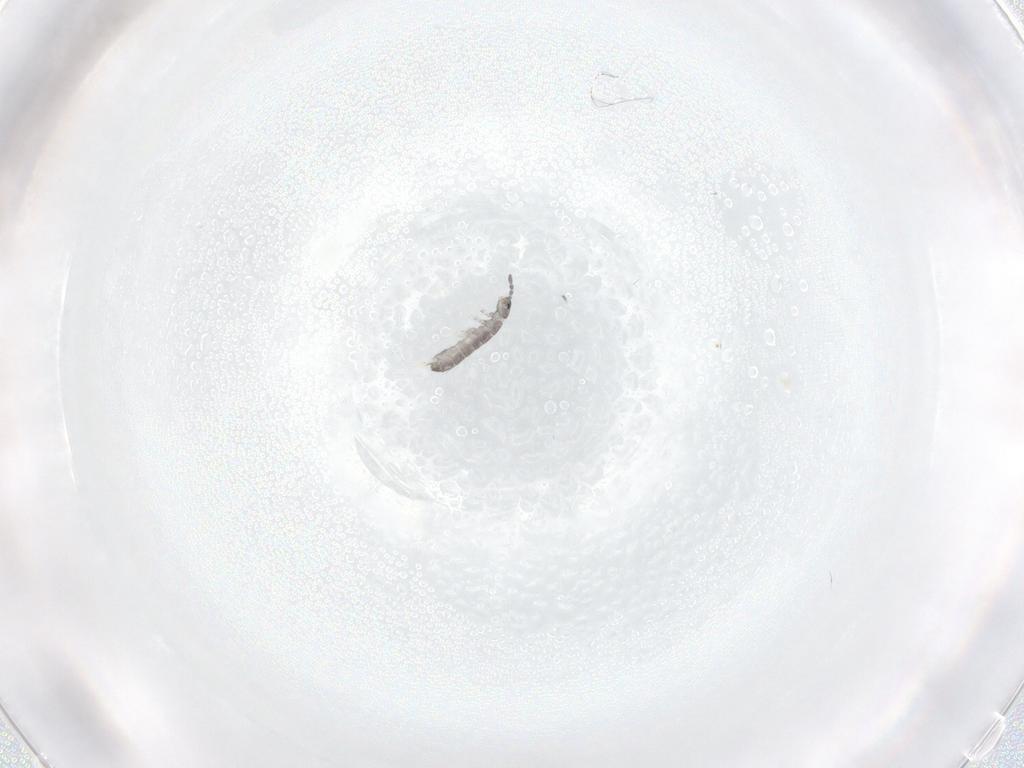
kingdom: Animalia
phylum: Arthropoda
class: Collembola
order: Entomobryomorpha
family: Isotomidae
